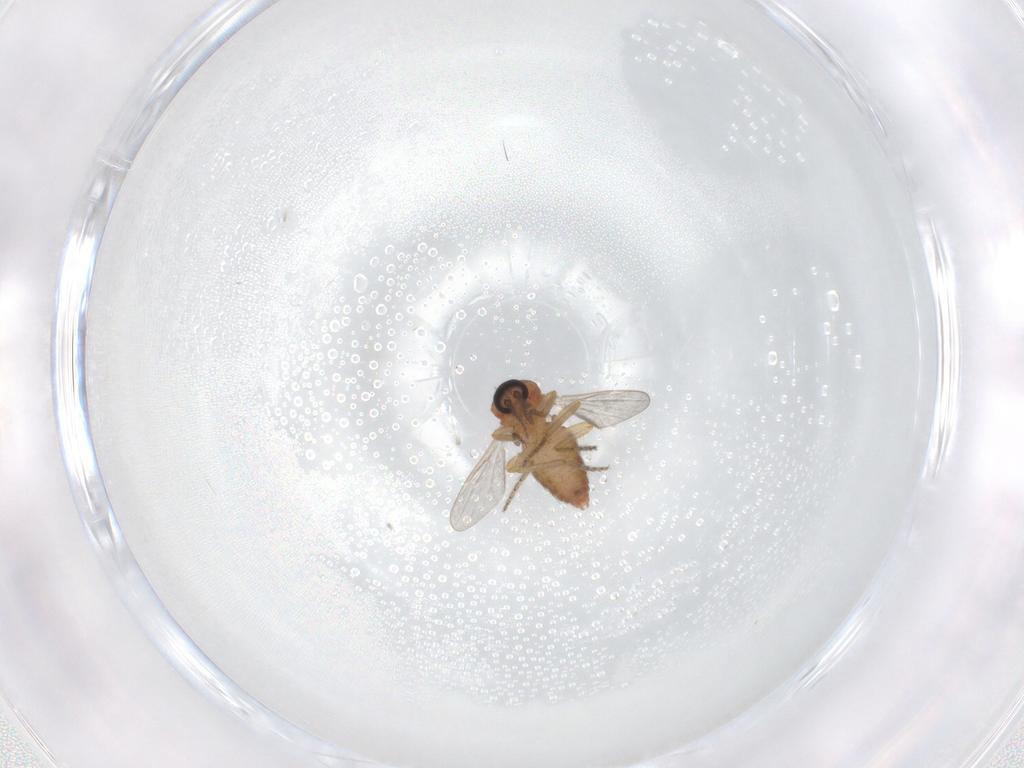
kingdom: Animalia
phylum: Arthropoda
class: Insecta
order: Diptera
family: Ceratopogonidae
